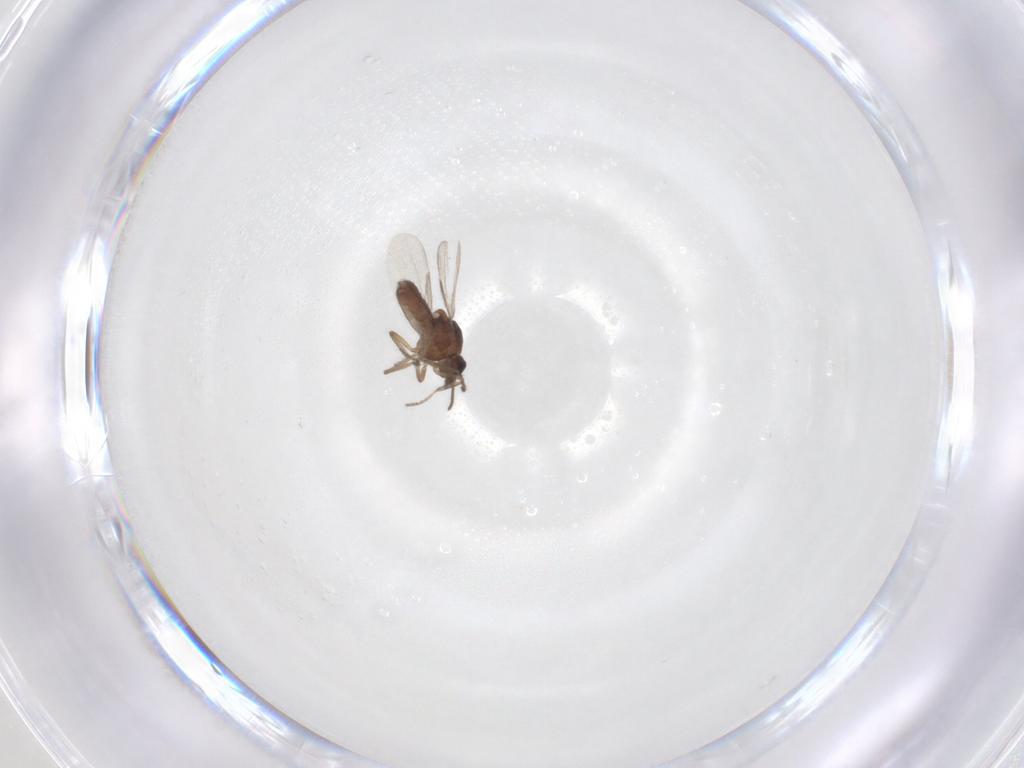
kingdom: Animalia
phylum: Arthropoda
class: Insecta
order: Diptera
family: Ceratopogonidae
